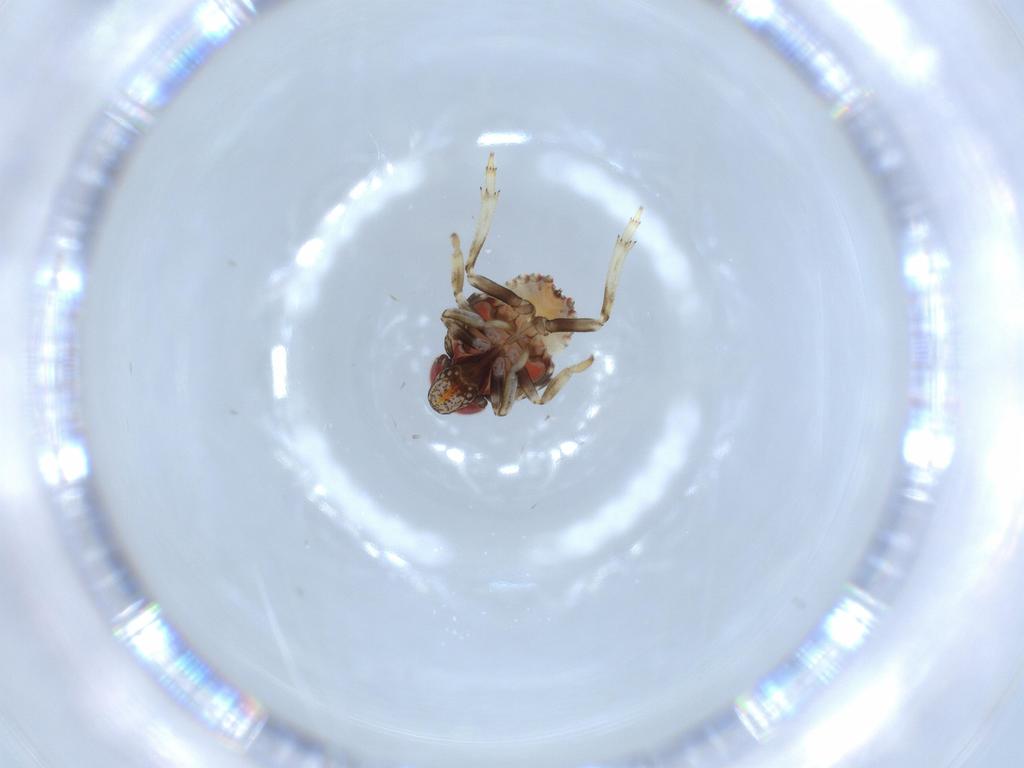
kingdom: Animalia
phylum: Arthropoda
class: Insecta
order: Hemiptera
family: Issidae
